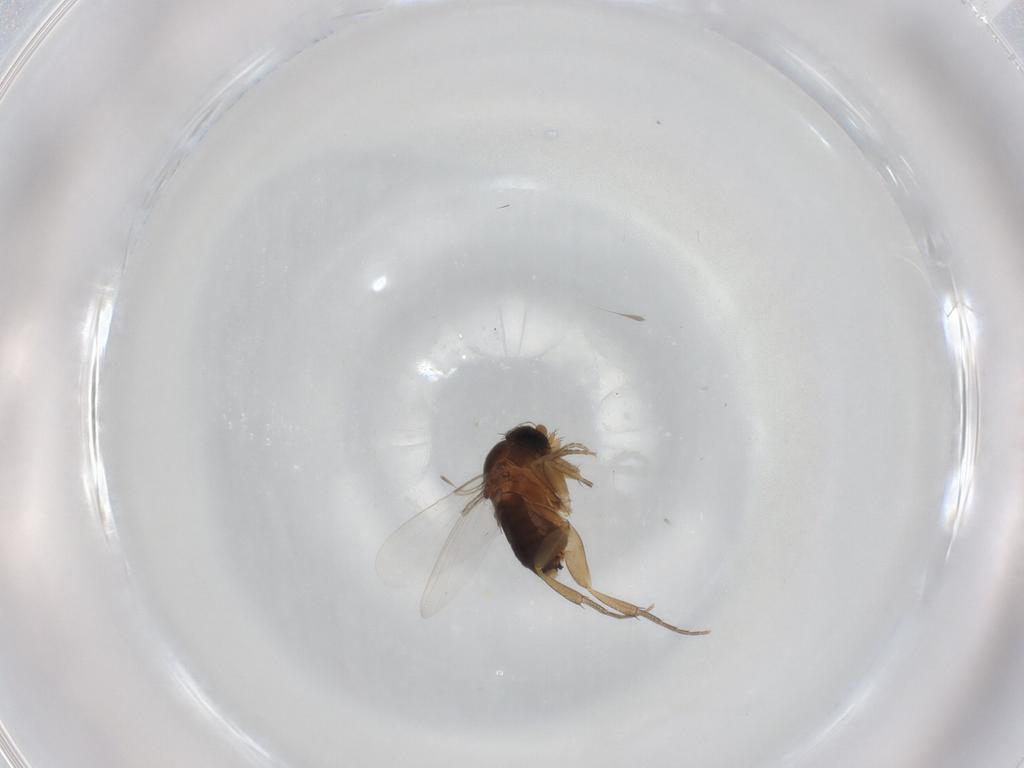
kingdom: Animalia
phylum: Arthropoda
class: Insecta
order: Diptera
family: Phoridae
